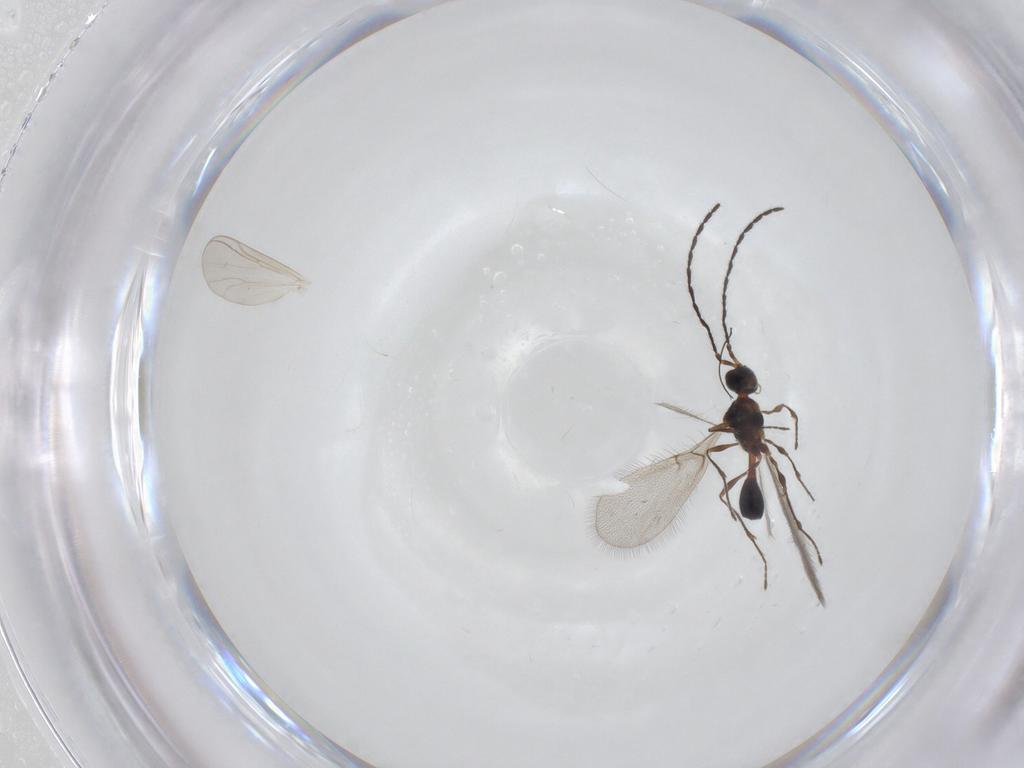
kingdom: Animalia
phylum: Arthropoda
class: Insecta
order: Hymenoptera
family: Diapriidae
